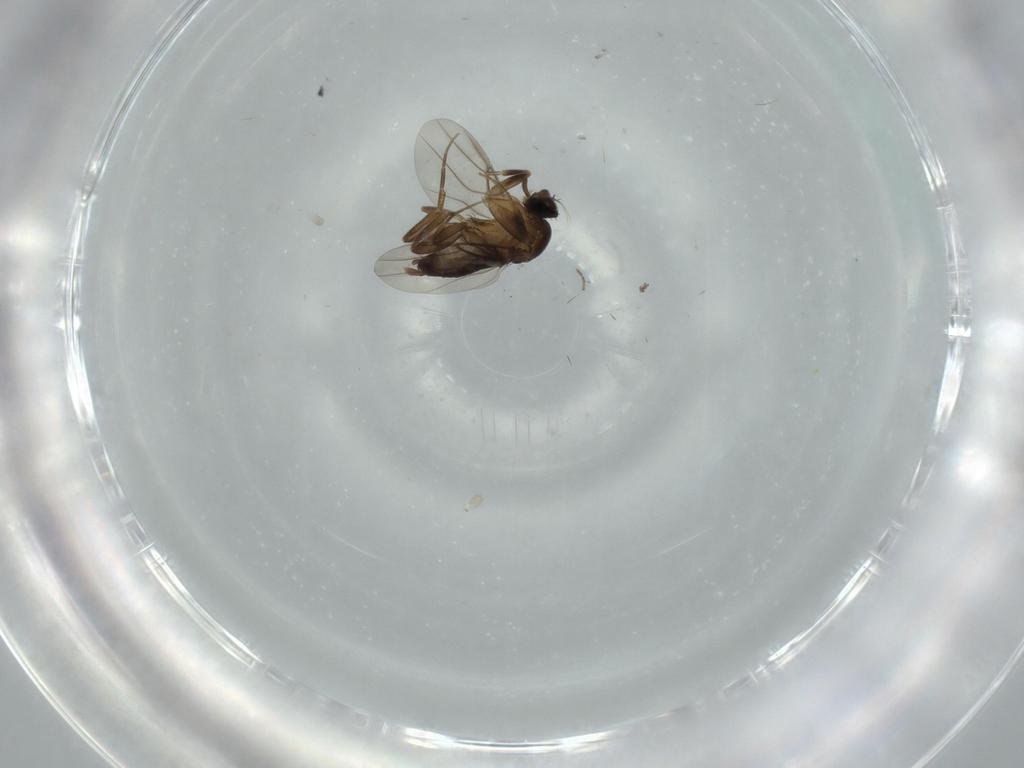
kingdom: Animalia
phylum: Arthropoda
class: Insecta
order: Diptera
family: Phoridae
